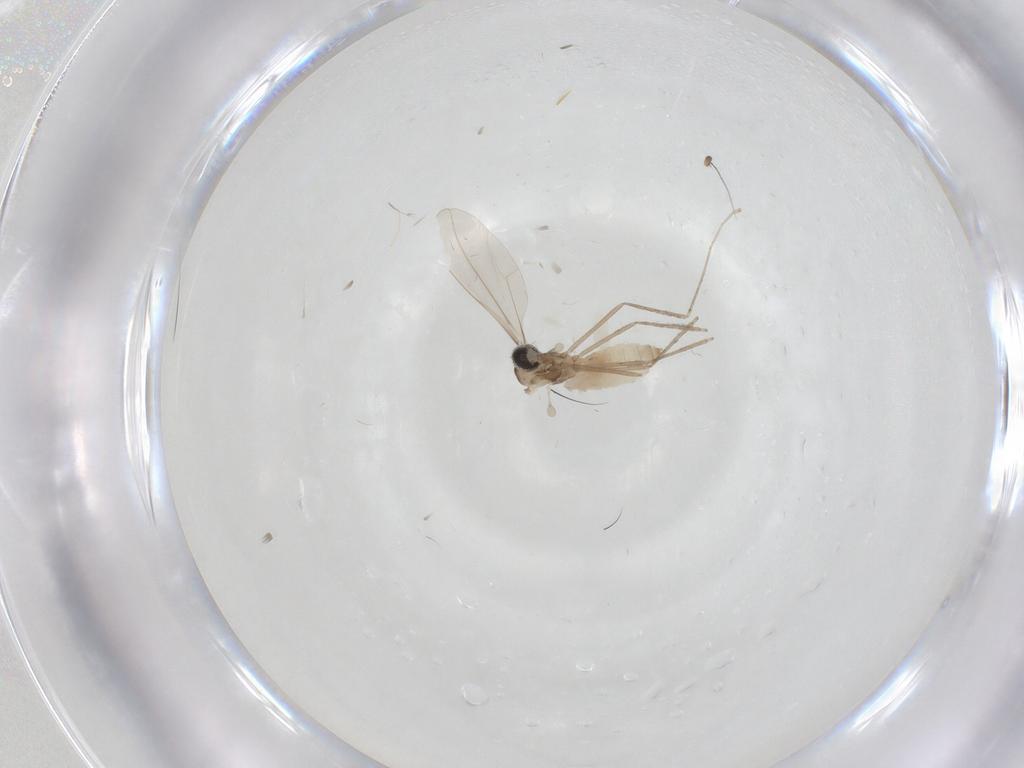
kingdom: Animalia
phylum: Arthropoda
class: Insecta
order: Diptera
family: Cecidomyiidae
